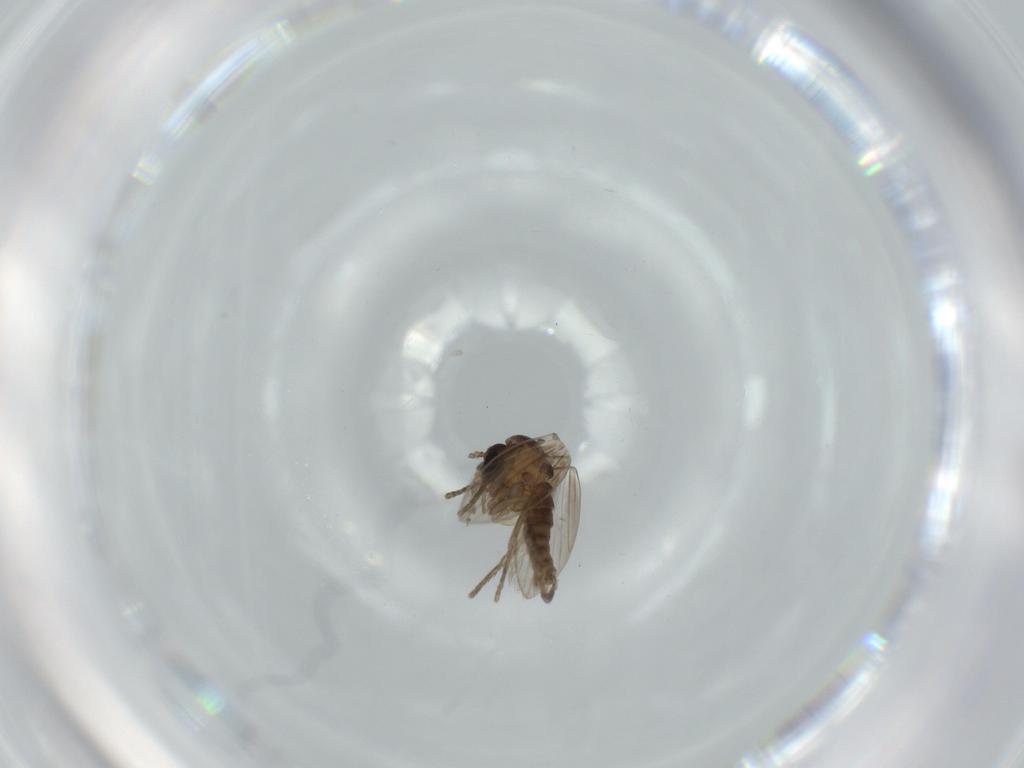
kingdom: Animalia
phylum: Arthropoda
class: Insecta
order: Diptera
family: Psychodidae
